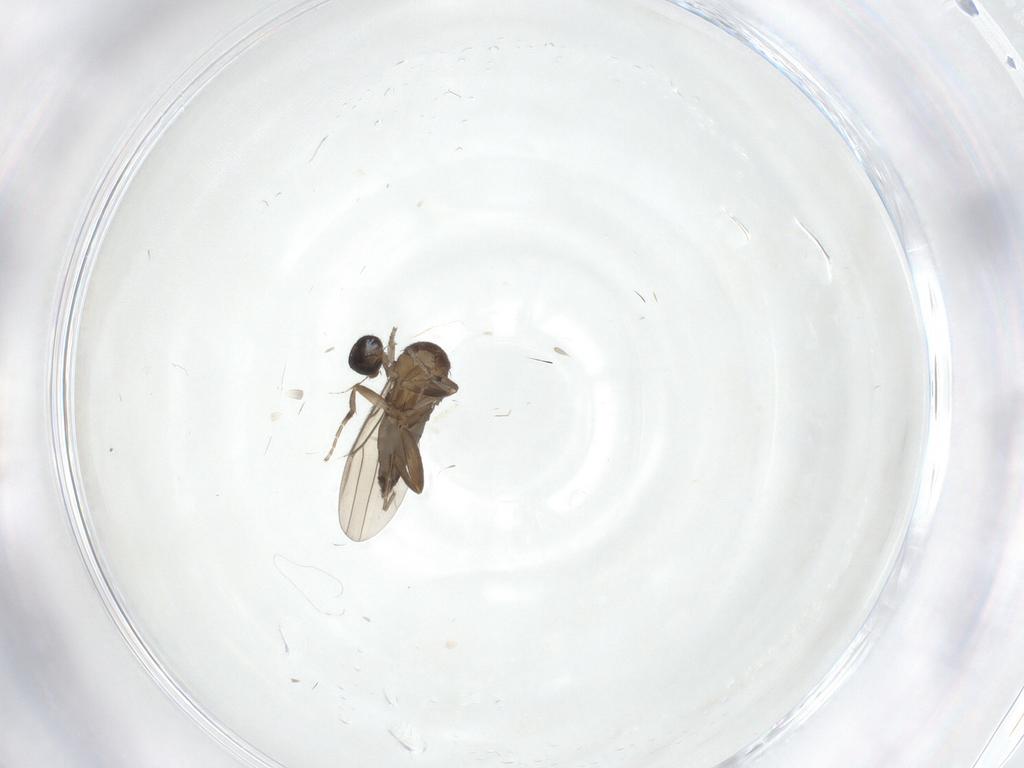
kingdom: Animalia
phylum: Arthropoda
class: Insecta
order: Diptera
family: Phoridae
